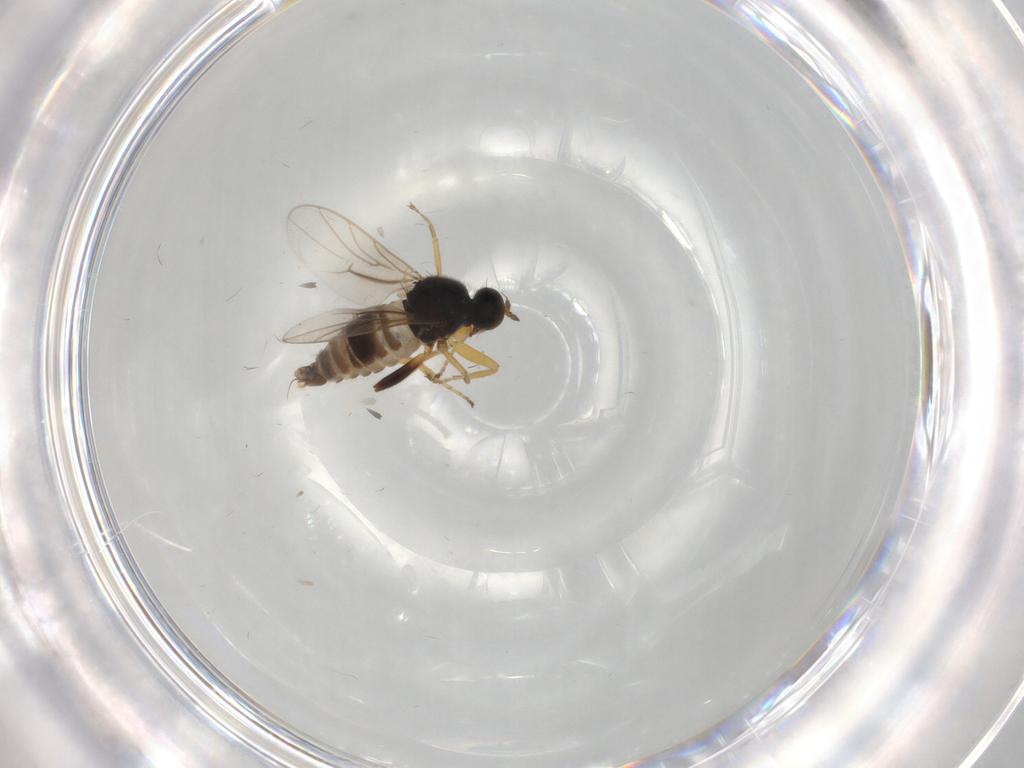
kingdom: Animalia
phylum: Arthropoda
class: Insecta
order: Diptera
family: Hybotidae
